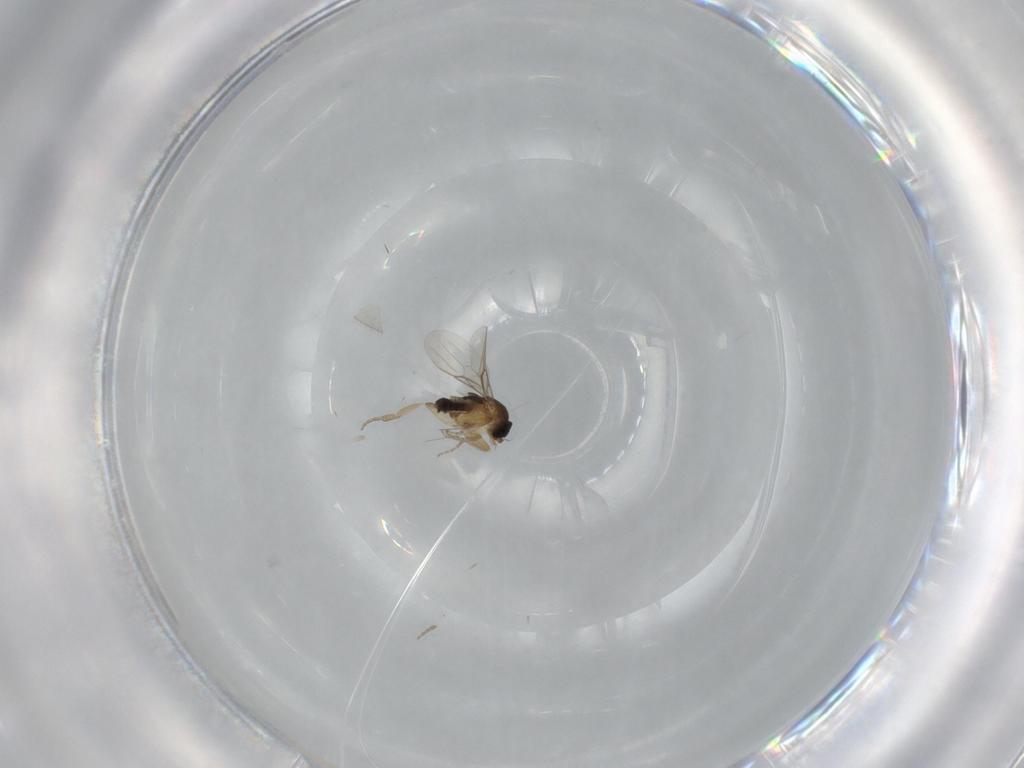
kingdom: Animalia
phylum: Arthropoda
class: Insecta
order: Diptera
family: Phoridae
